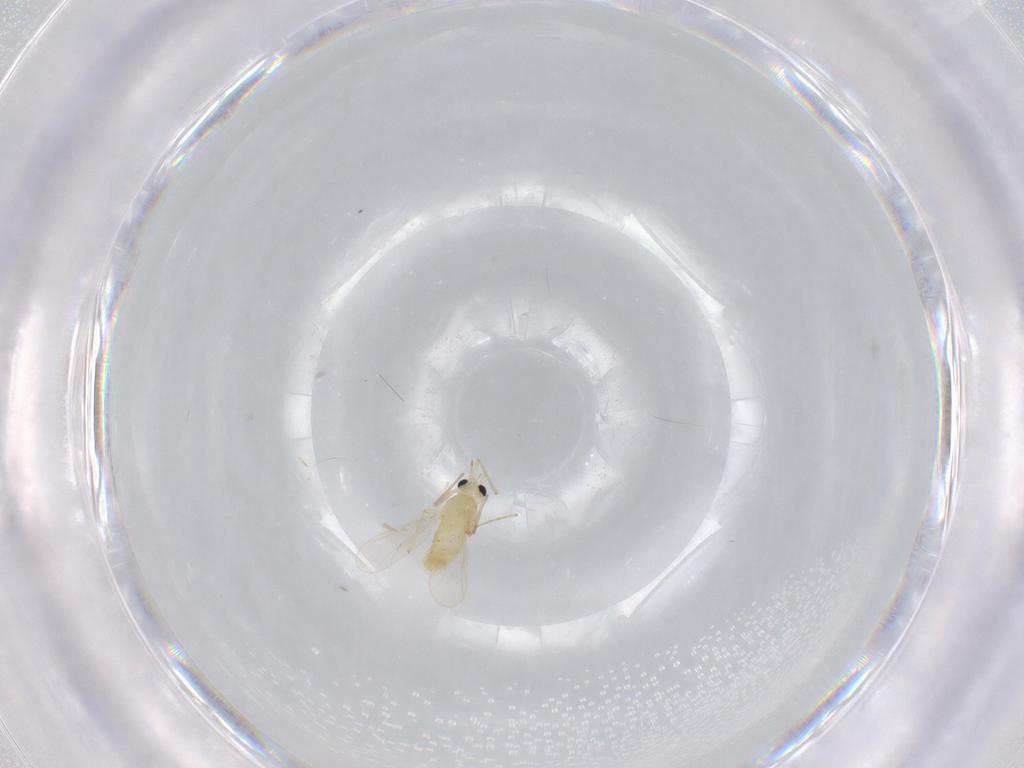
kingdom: Animalia
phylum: Arthropoda
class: Insecta
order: Diptera
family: Chironomidae
